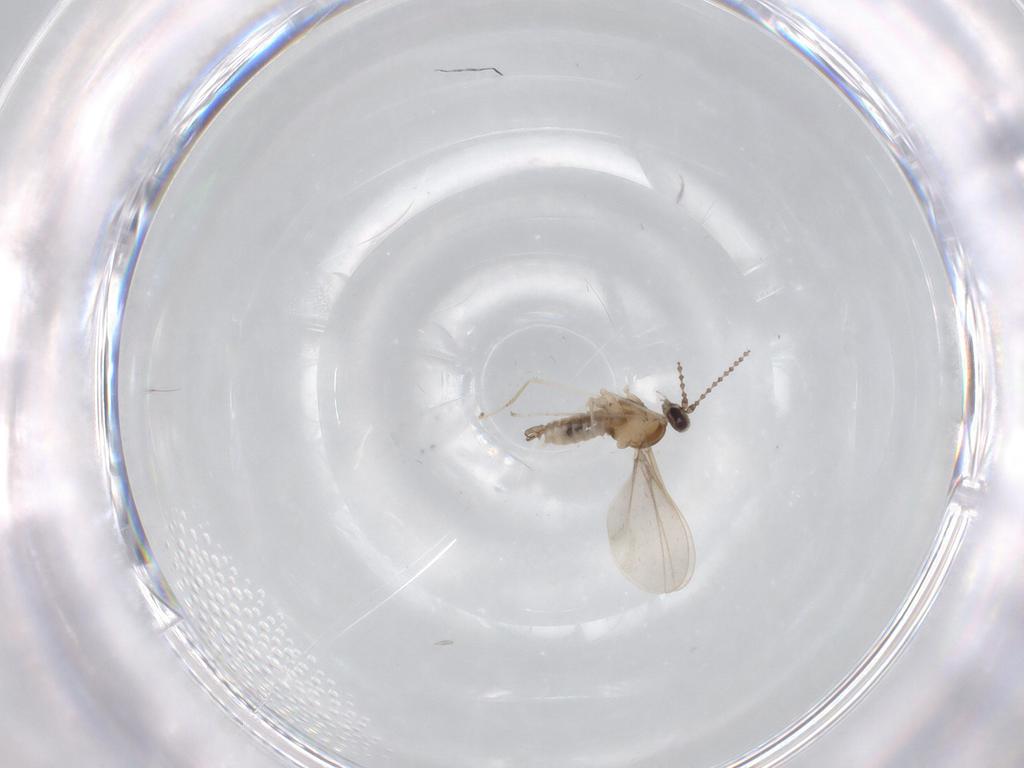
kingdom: Animalia
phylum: Arthropoda
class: Insecta
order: Diptera
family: Cecidomyiidae
